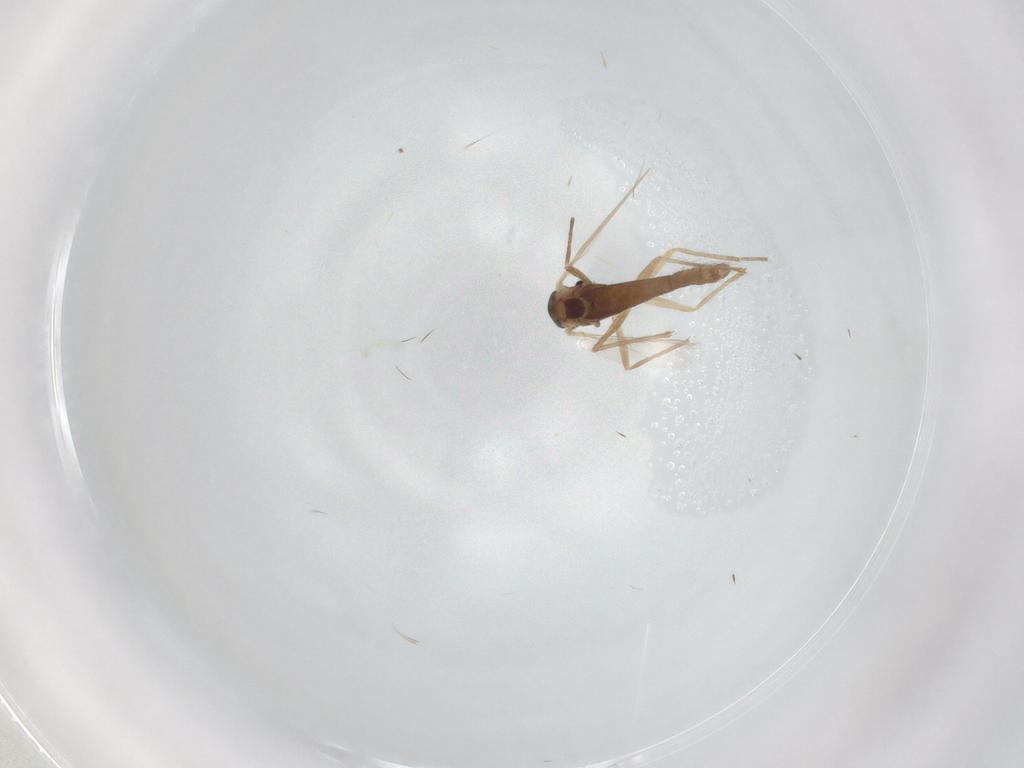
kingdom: Animalia
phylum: Arthropoda
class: Insecta
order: Diptera
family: Chironomidae
